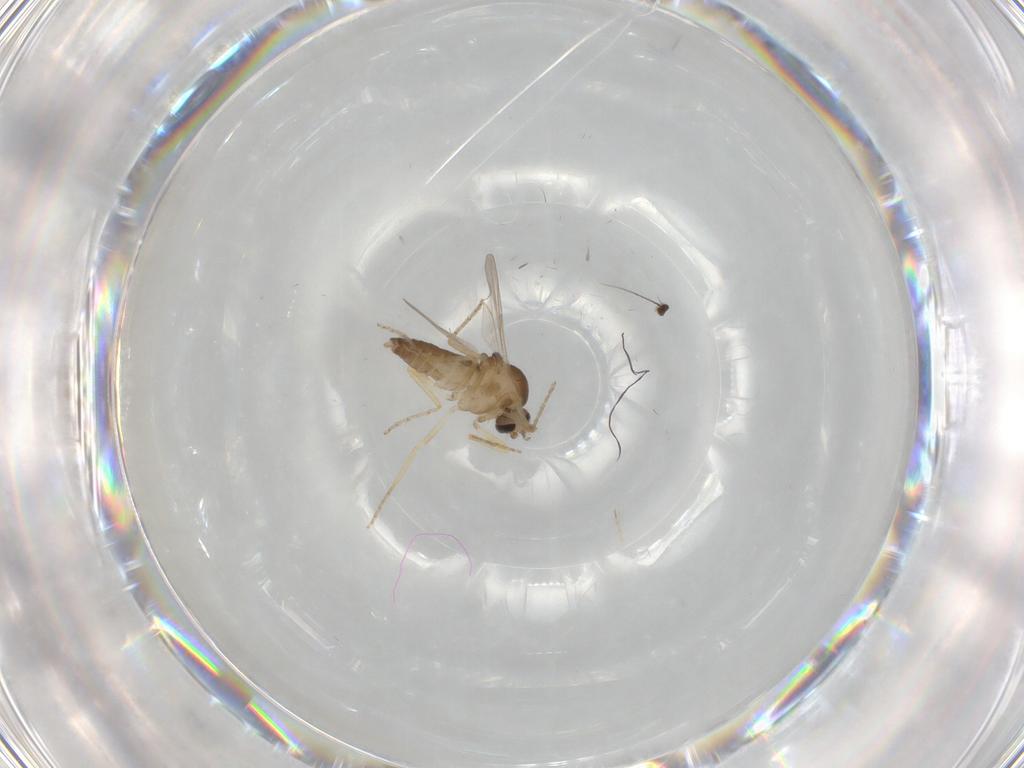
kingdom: Animalia
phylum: Arthropoda
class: Insecta
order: Diptera
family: Ceratopogonidae
